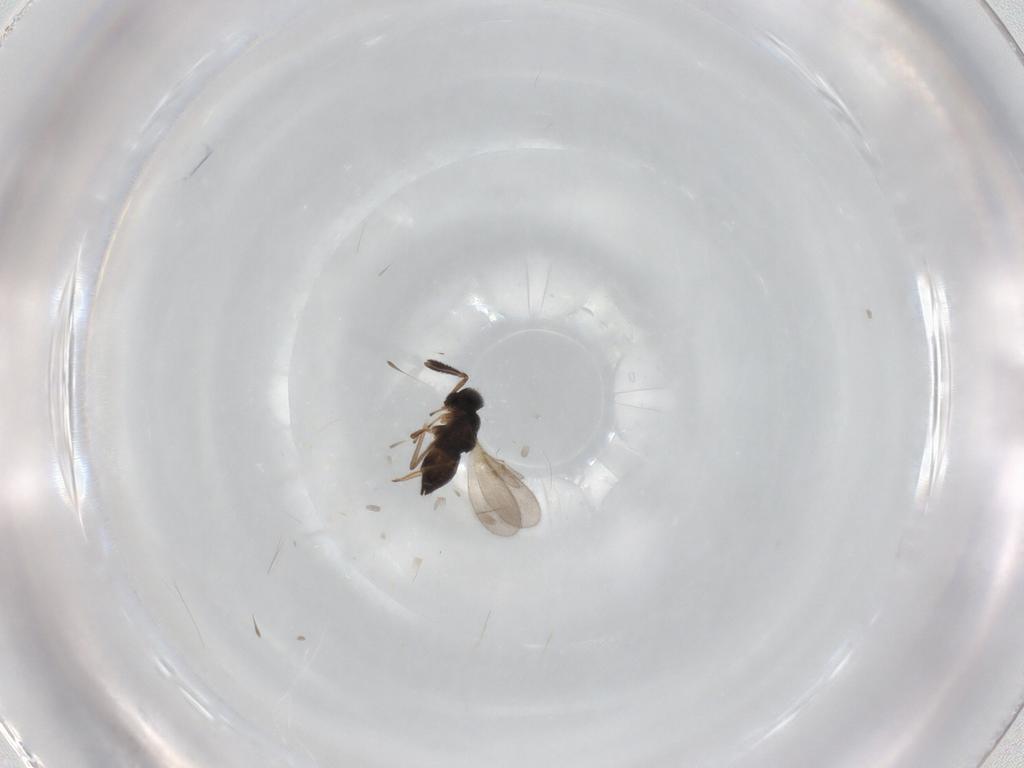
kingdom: Animalia
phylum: Arthropoda
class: Insecta
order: Hymenoptera
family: Encyrtidae
